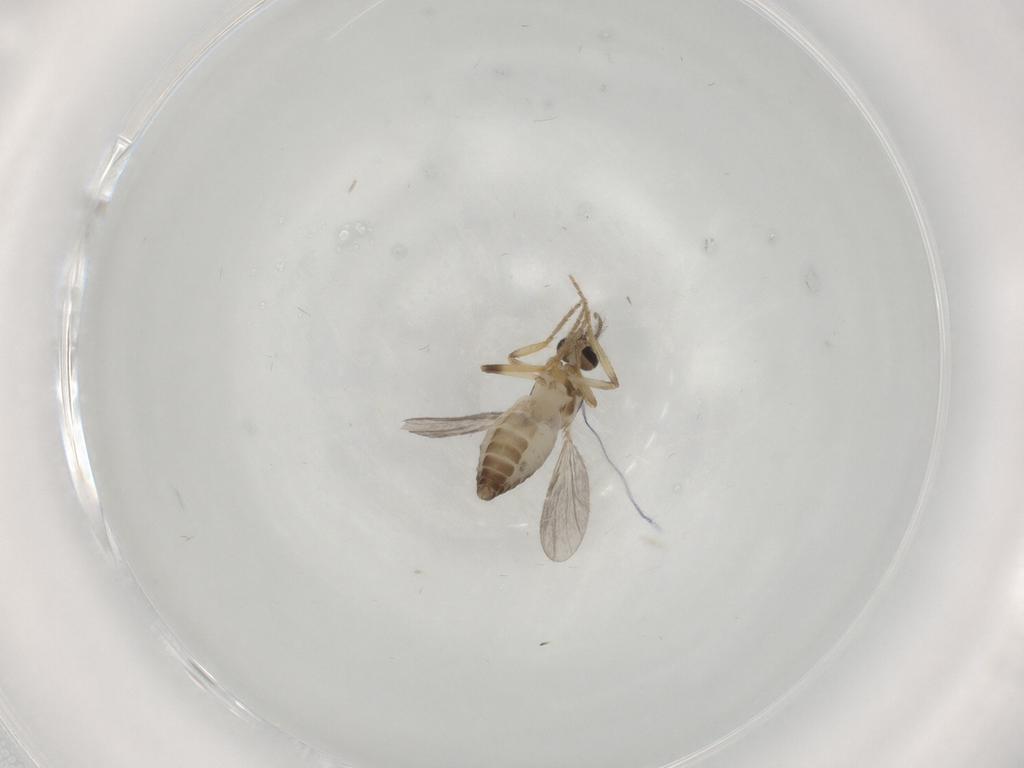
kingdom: Animalia
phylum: Arthropoda
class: Insecta
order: Diptera
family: Ceratopogonidae
